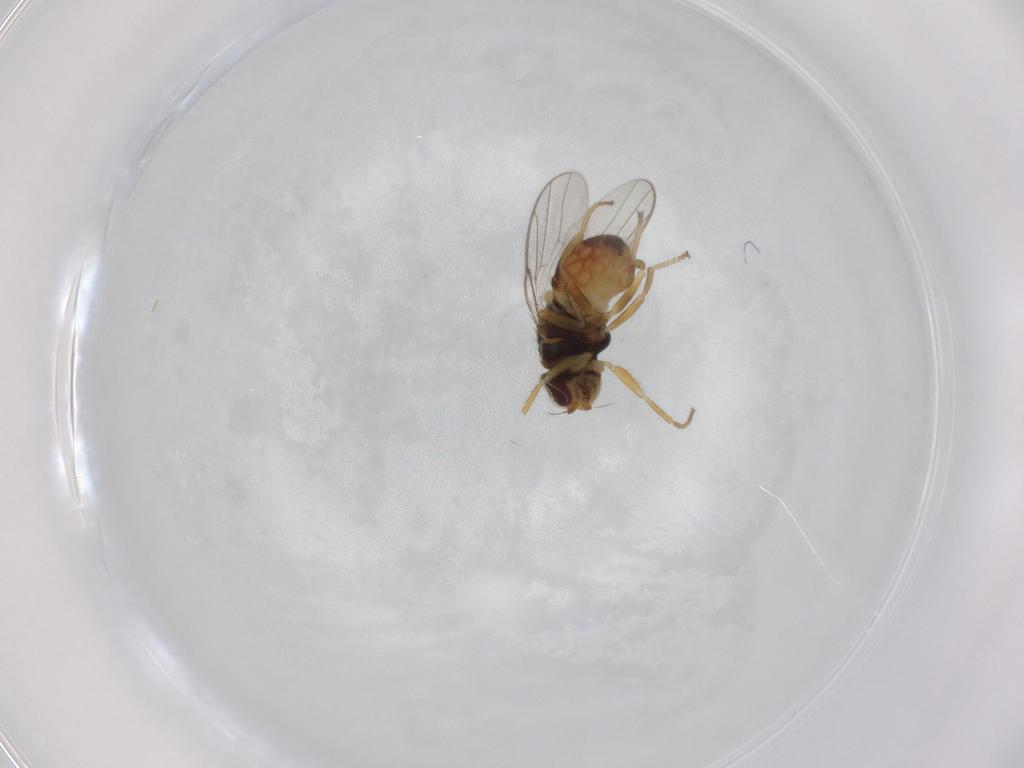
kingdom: Animalia
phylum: Arthropoda
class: Insecta
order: Diptera
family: Chloropidae
